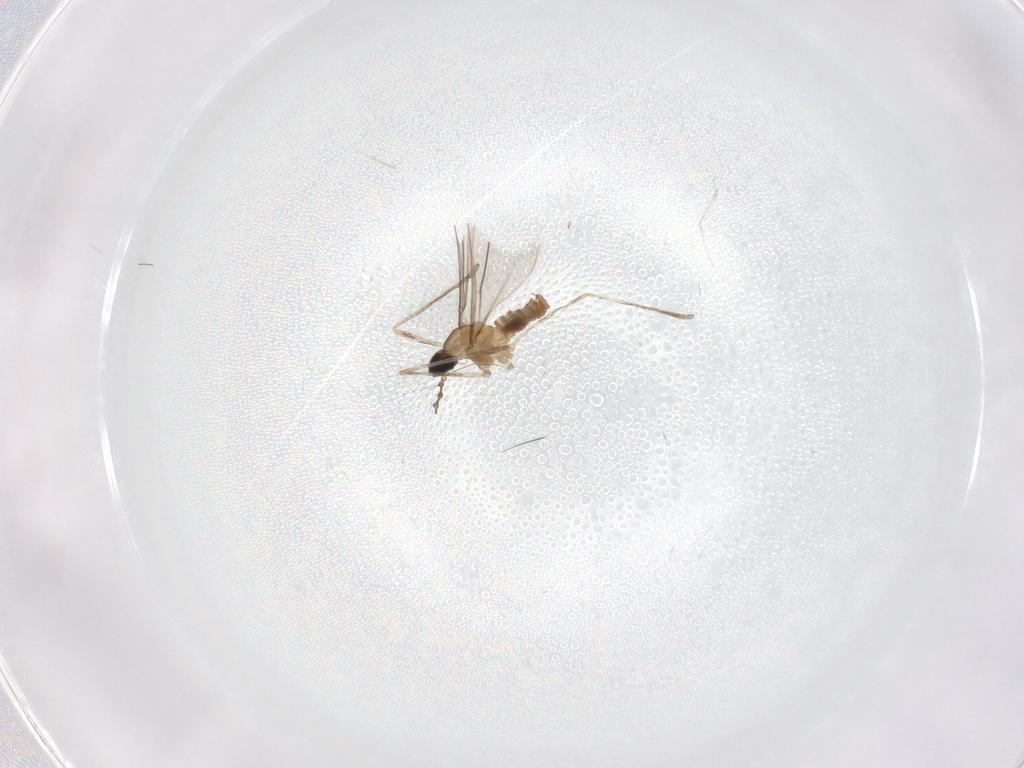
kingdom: Animalia
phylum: Arthropoda
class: Insecta
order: Diptera
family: Cecidomyiidae
